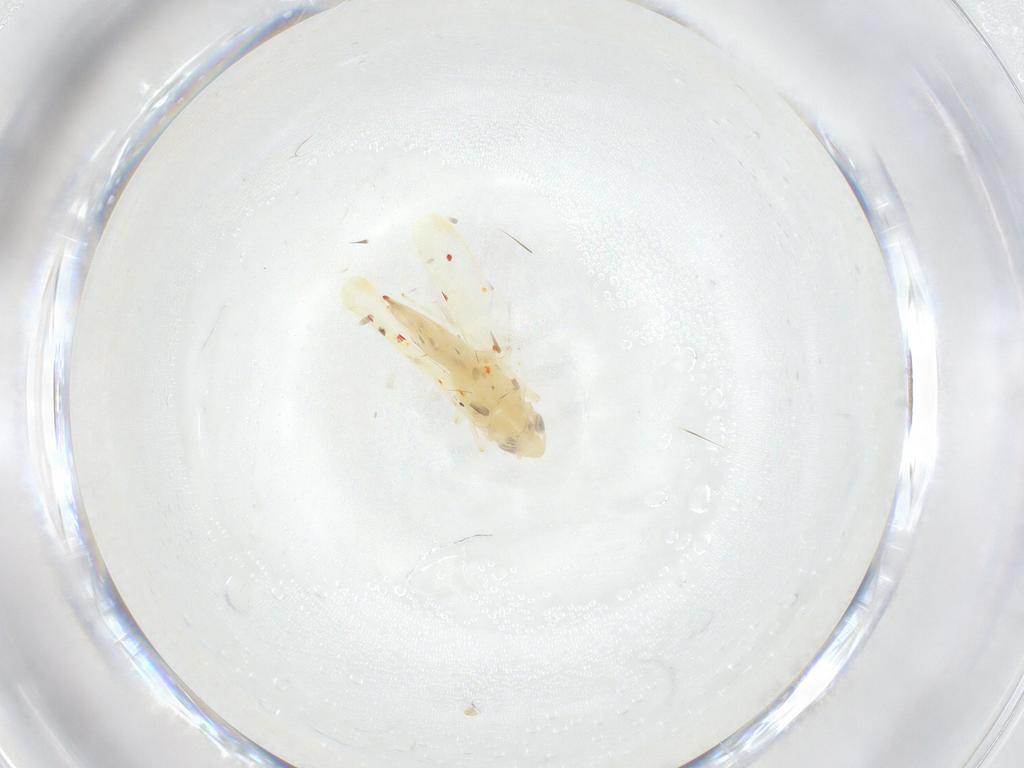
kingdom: Animalia
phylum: Arthropoda
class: Insecta
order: Hemiptera
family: Cicadellidae
